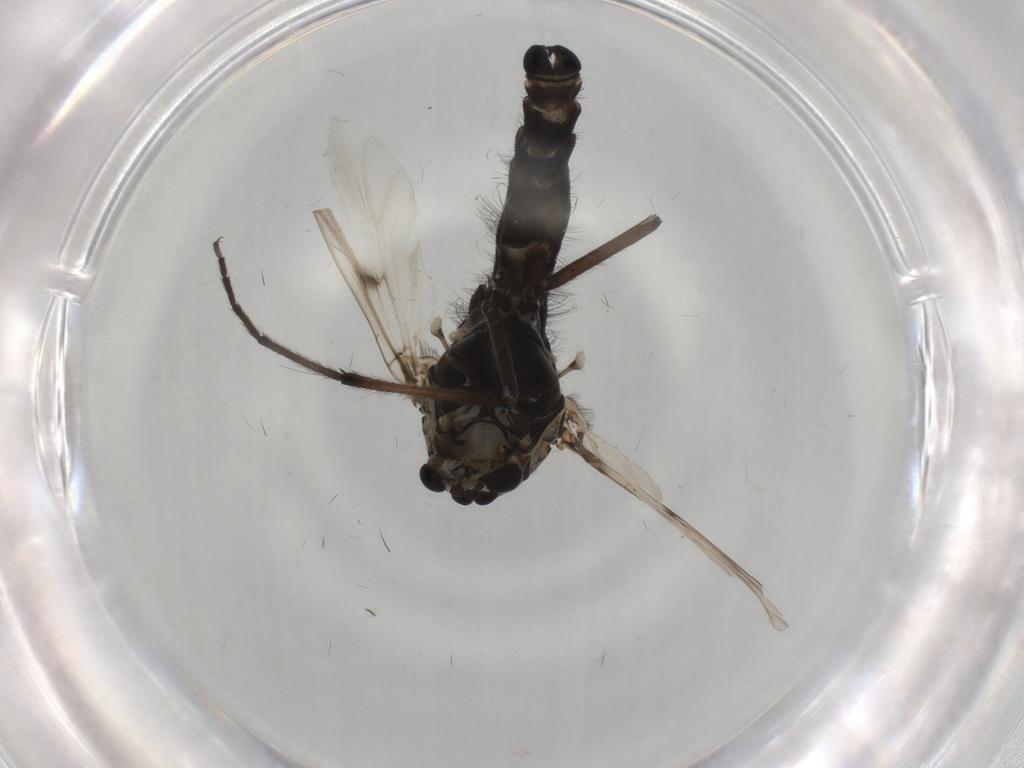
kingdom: Animalia
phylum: Arthropoda
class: Insecta
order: Diptera
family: Chironomidae
